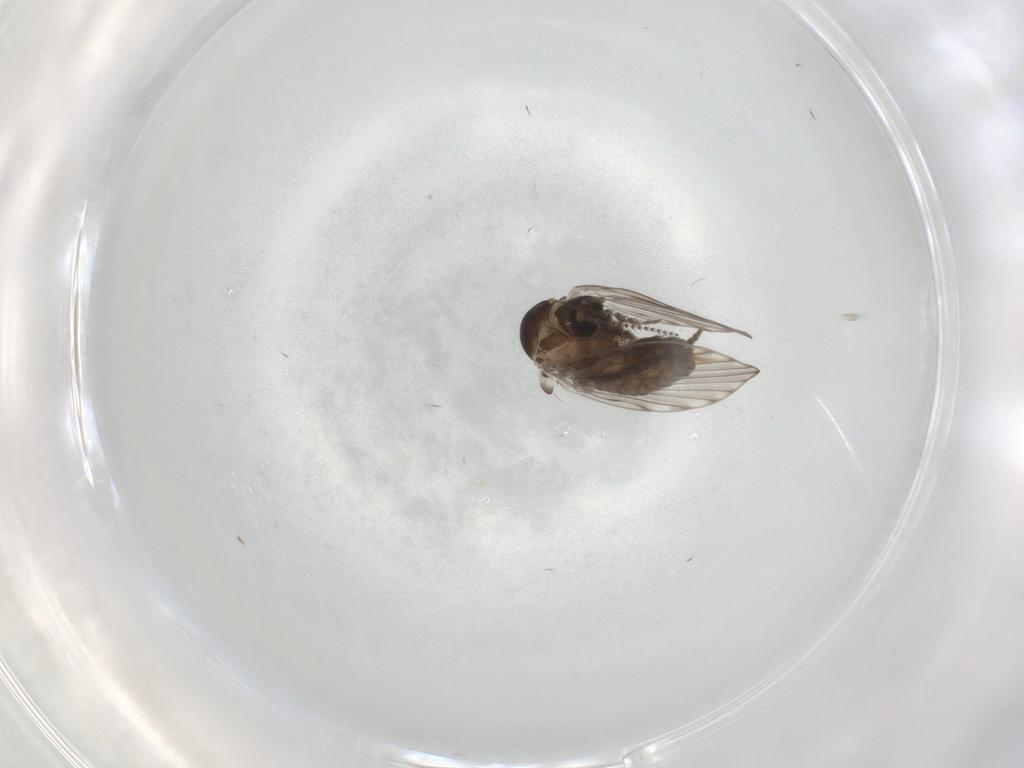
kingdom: Animalia
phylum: Arthropoda
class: Insecta
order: Diptera
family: Psychodidae
